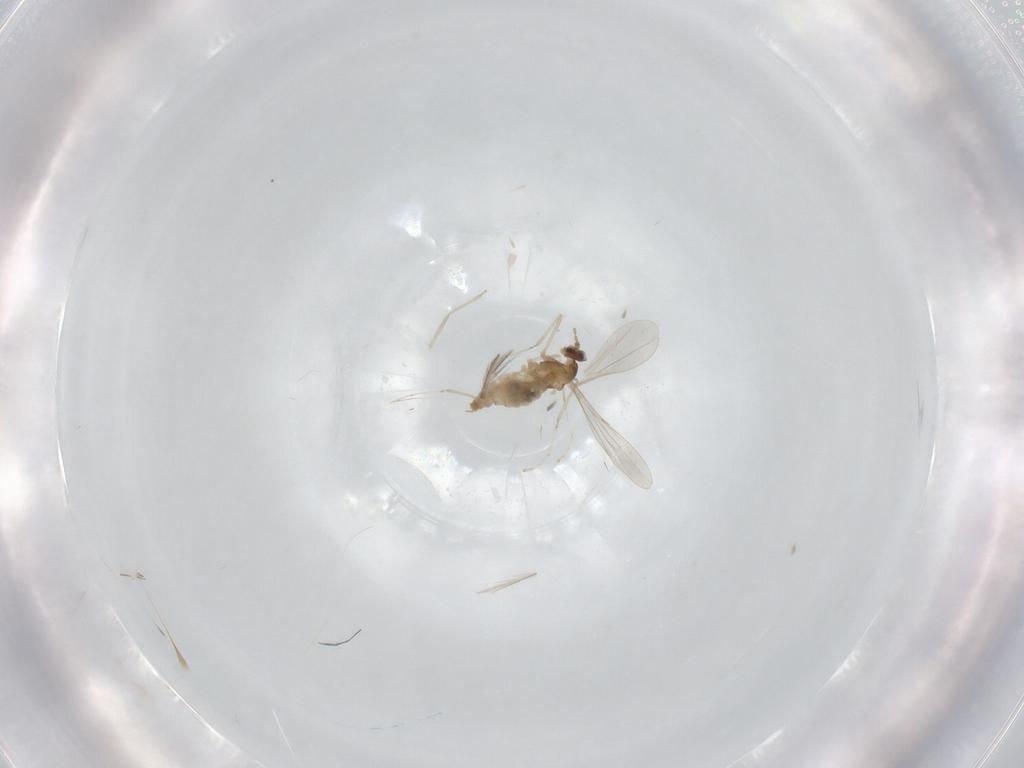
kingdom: Animalia
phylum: Arthropoda
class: Insecta
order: Diptera
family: Cecidomyiidae
